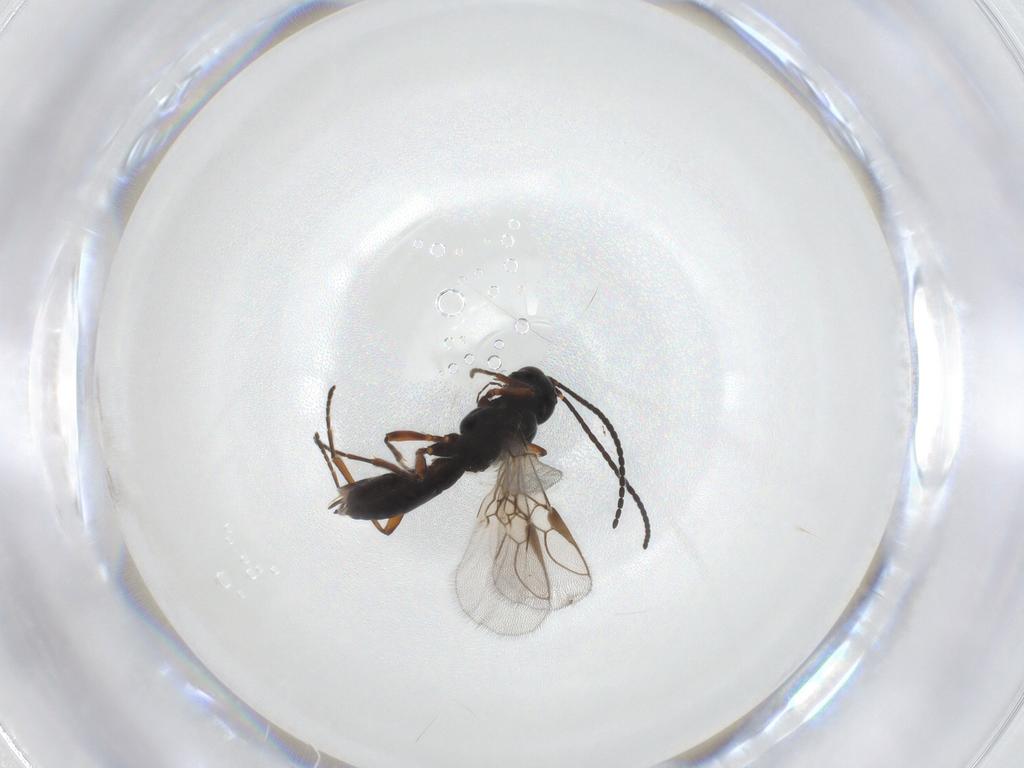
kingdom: Animalia
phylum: Arthropoda
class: Insecta
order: Hymenoptera
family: Braconidae
